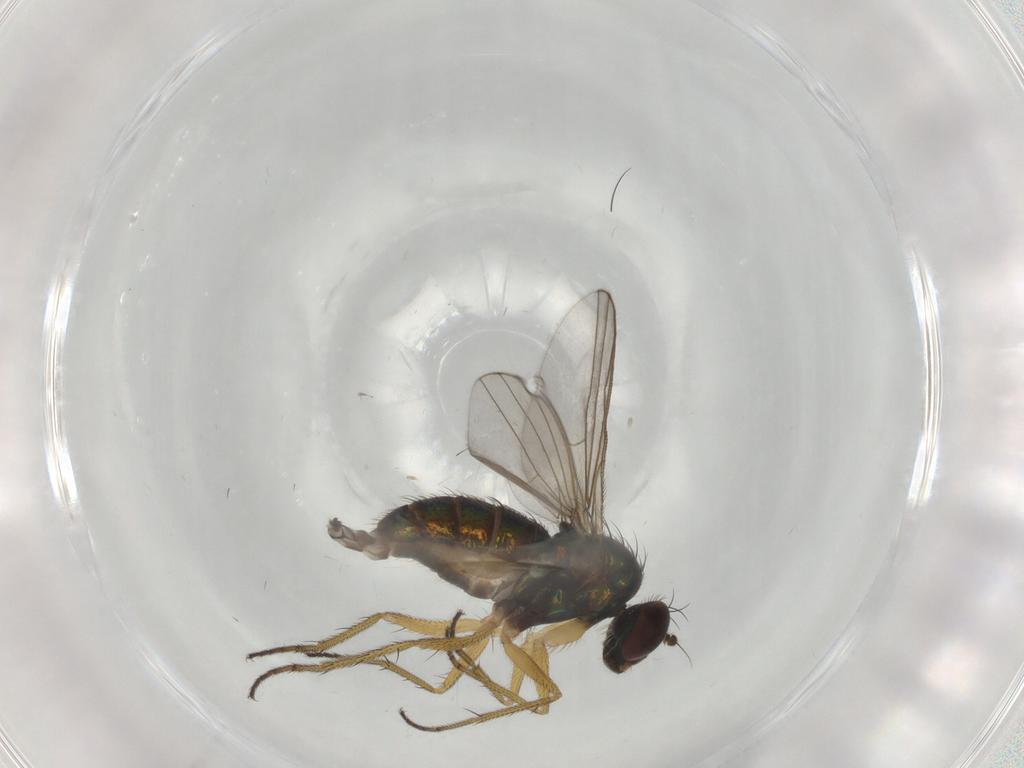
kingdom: Animalia
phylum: Arthropoda
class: Insecta
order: Diptera
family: Dolichopodidae
